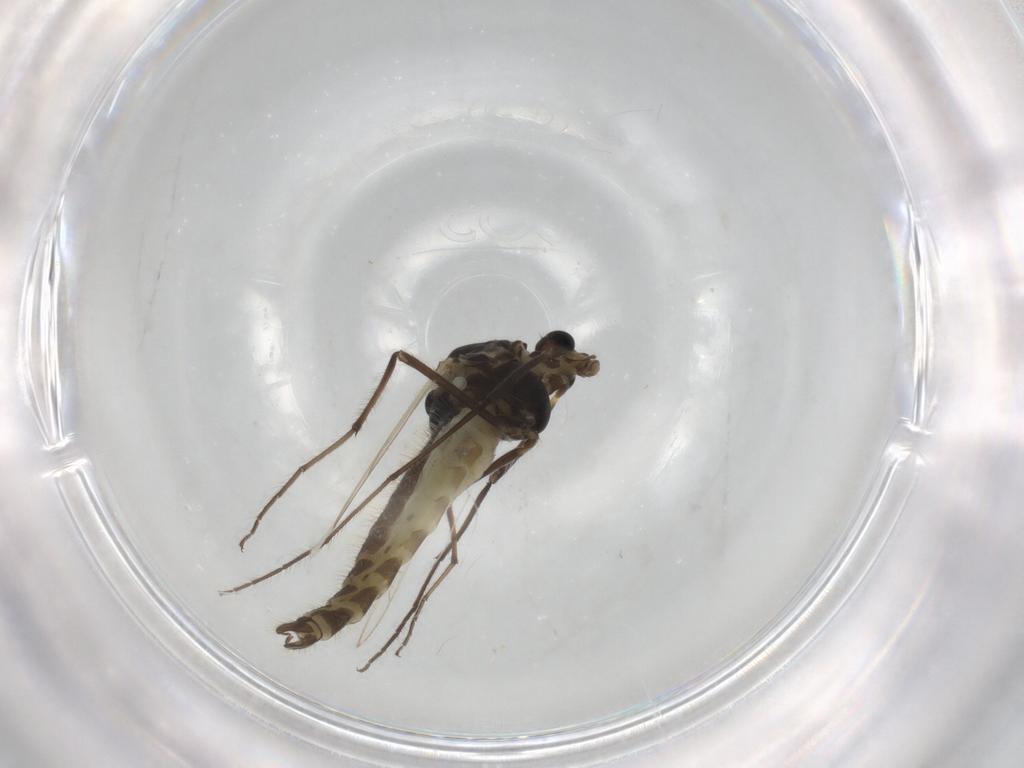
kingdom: Animalia
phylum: Arthropoda
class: Insecta
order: Diptera
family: Chironomidae
